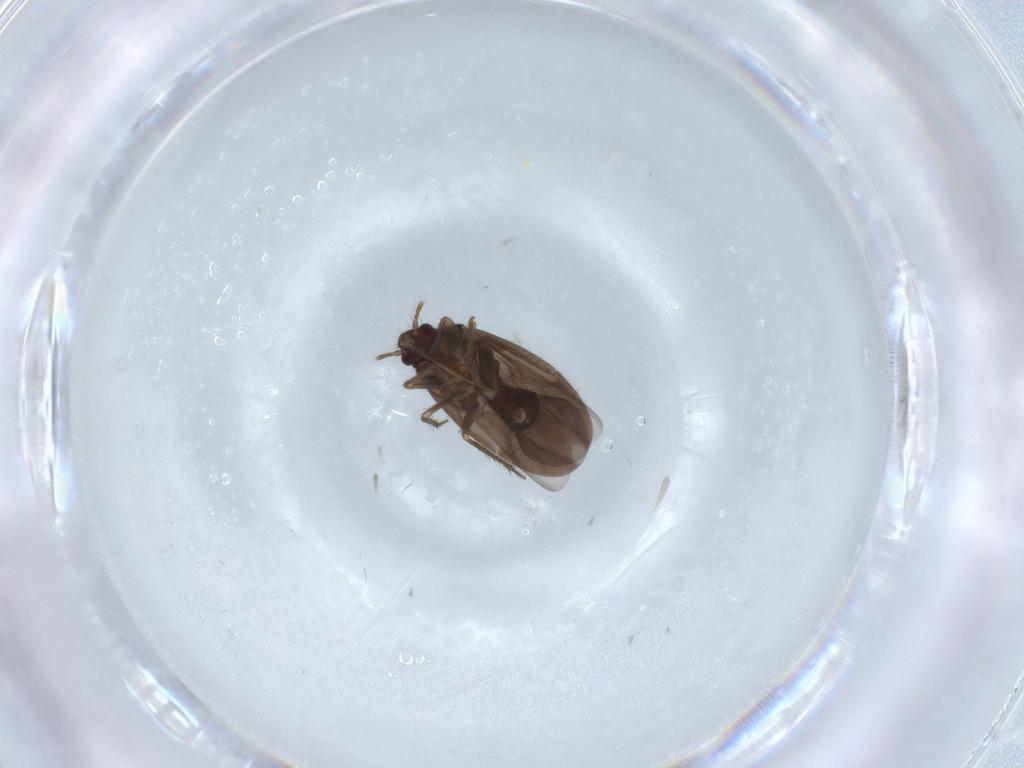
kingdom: Animalia
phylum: Arthropoda
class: Insecta
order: Hemiptera
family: Ceratocombidae
